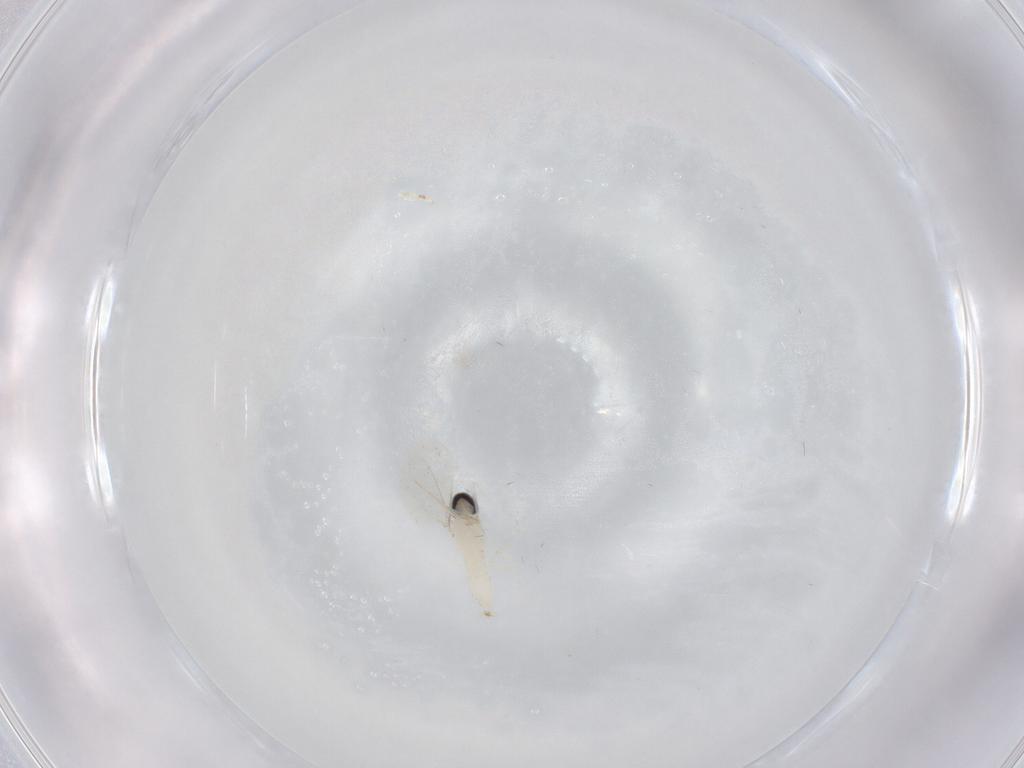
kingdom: Animalia
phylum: Arthropoda
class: Insecta
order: Diptera
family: Cecidomyiidae
